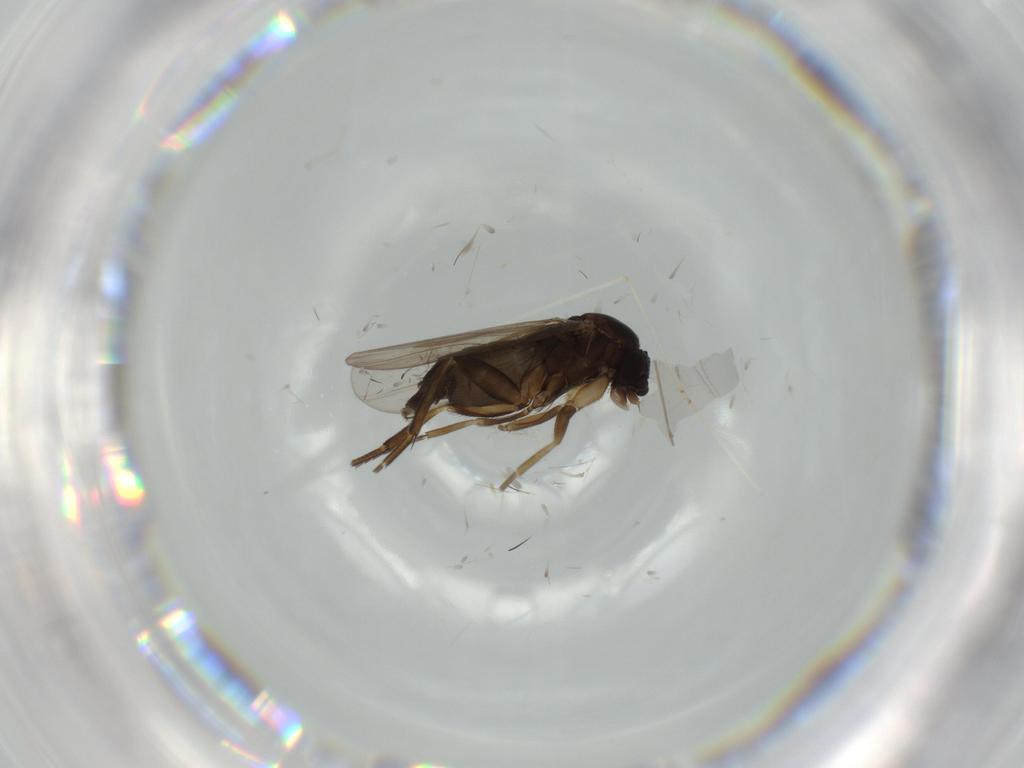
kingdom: Animalia
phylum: Arthropoda
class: Insecta
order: Diptera
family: Phoridae
